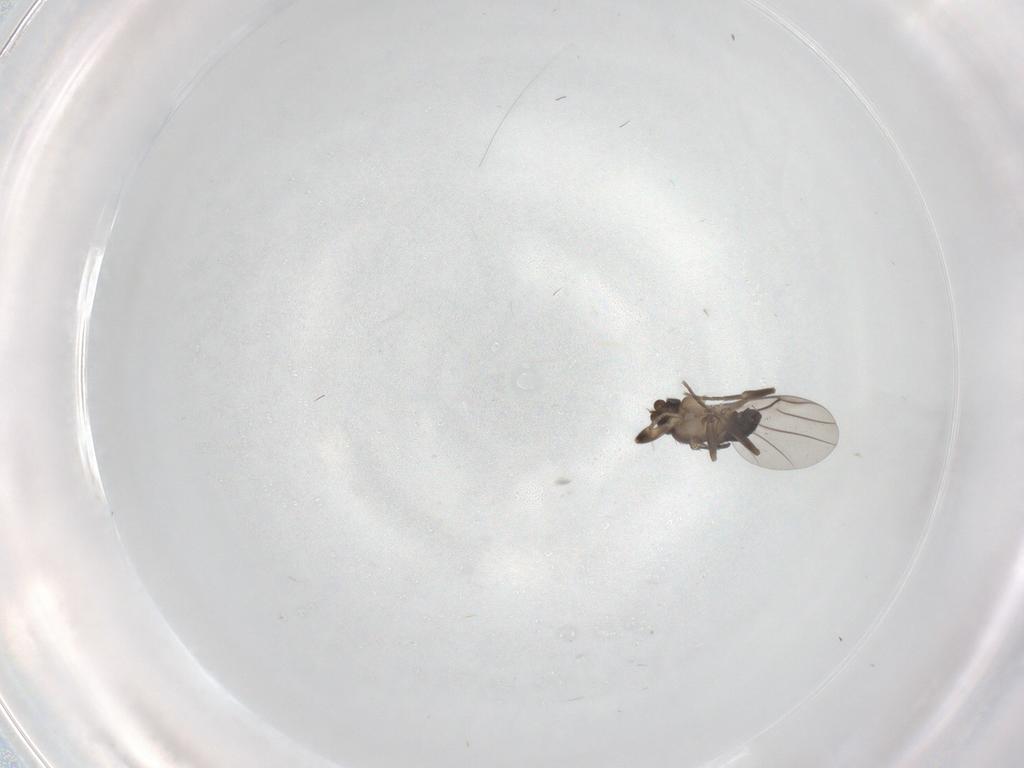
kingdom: Animalia
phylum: Arthropoda
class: Insecta
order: Diptera
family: Phoridae
